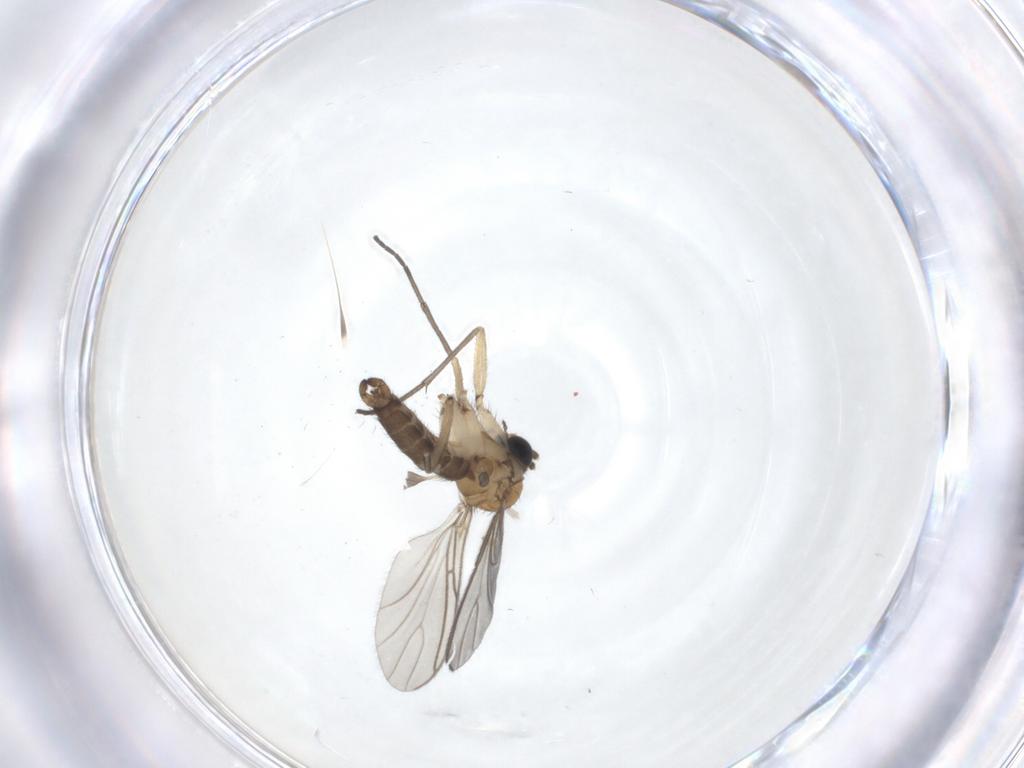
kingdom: Animalia
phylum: Arthropoda
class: Insecta
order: Diptera
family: Sciaridae
